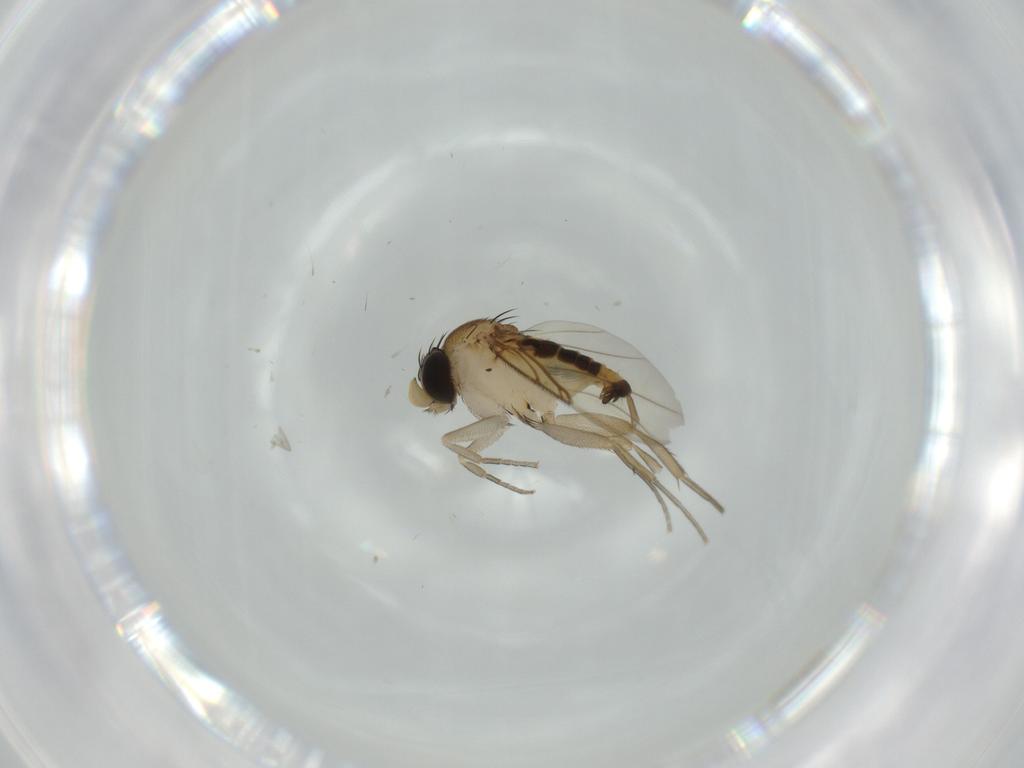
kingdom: Animalia
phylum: Arthropoda
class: Insecta
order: Diptera
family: Phoridae
